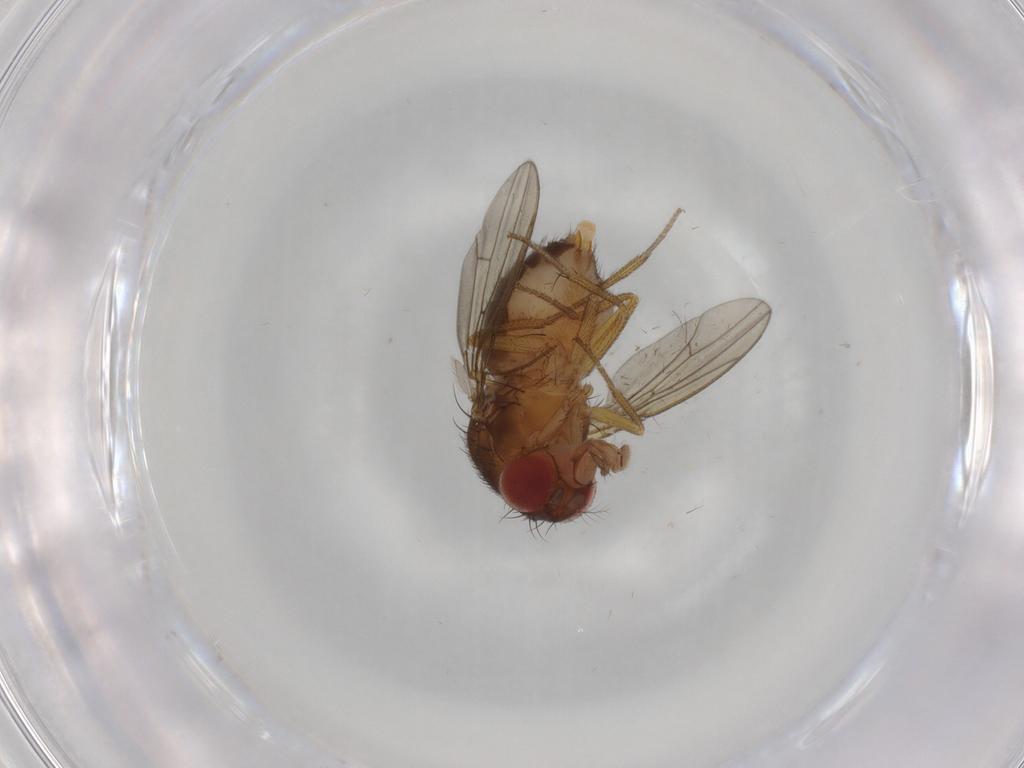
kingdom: Animalia
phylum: Arthropoda
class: Insecta
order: Diptera
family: Drosophilidae
